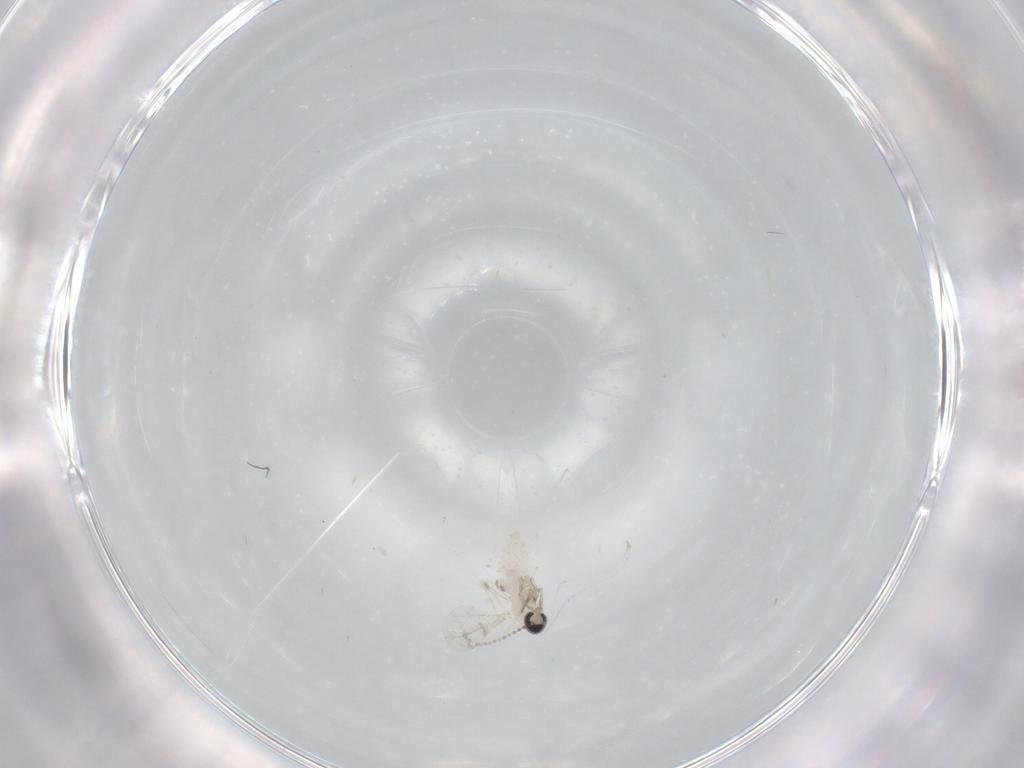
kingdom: Animalia
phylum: Arthropoda
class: Insecta
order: Diptera
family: Cecidomyiidae
